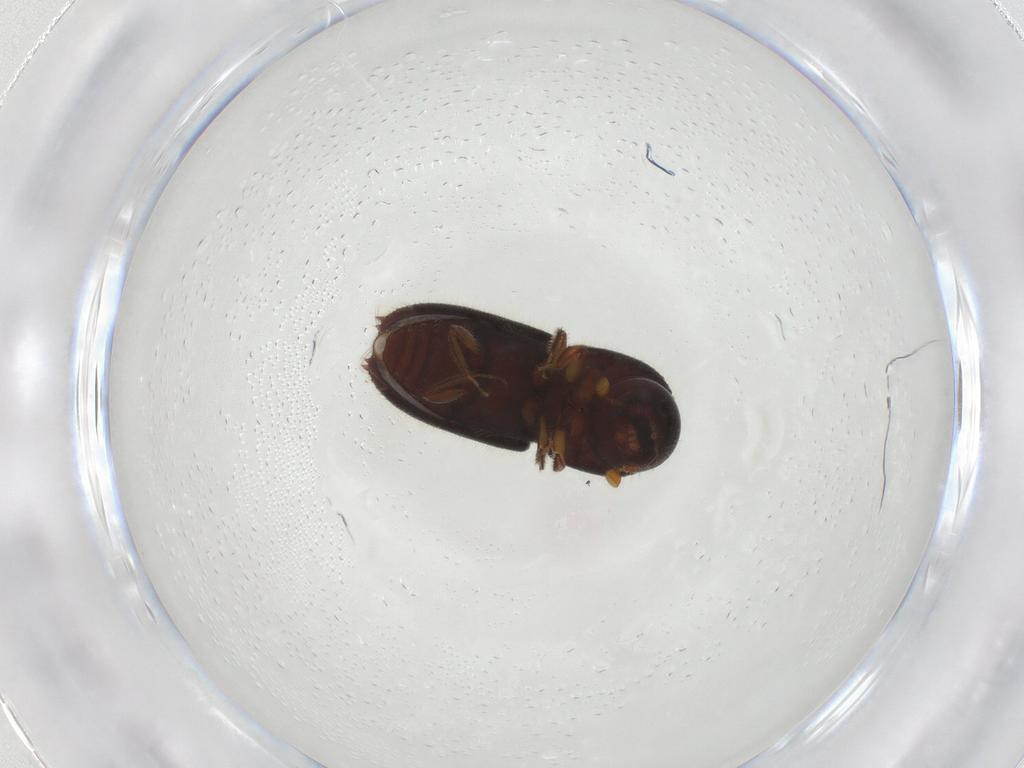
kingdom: Animalia
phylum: Arthropoda
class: Insecta
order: Coleoptera
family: Curculionidae
